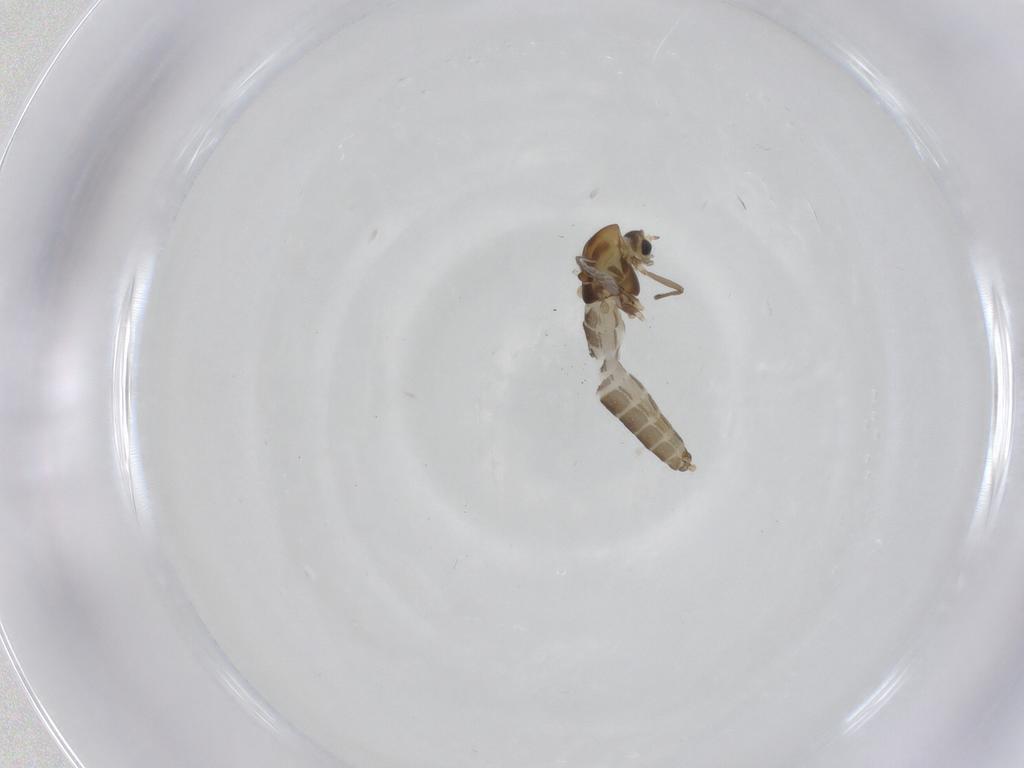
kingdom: Animalia
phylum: Arthropoda
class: Insecta
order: Diptera
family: Chironomidae
